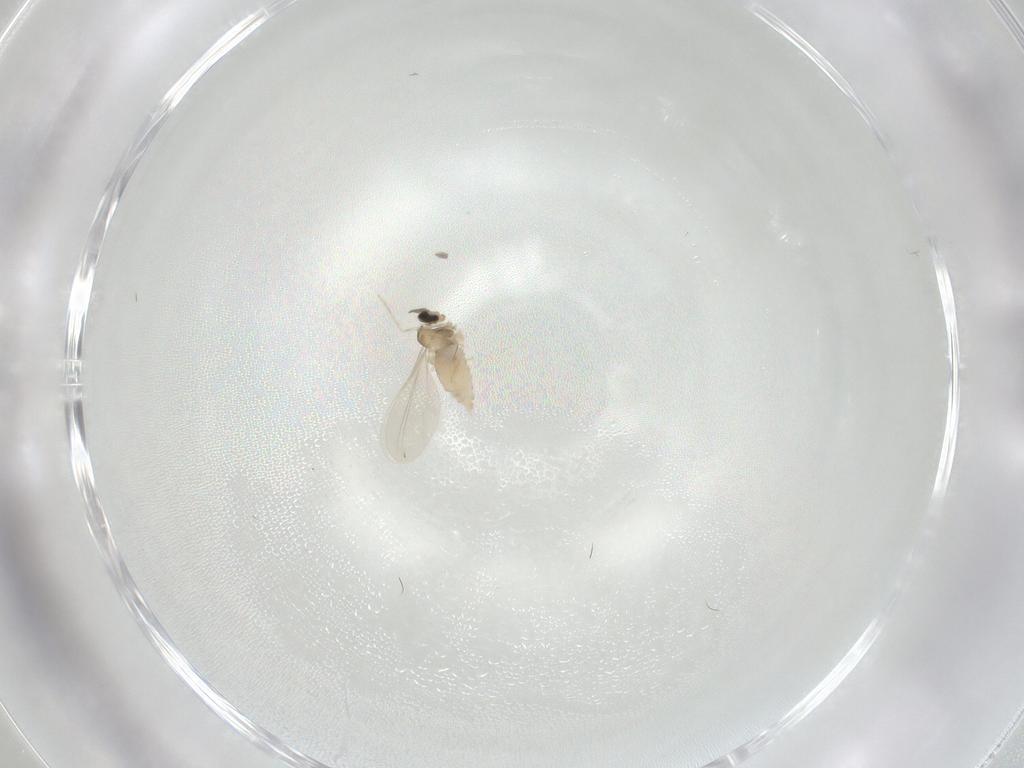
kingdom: Animalia
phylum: Arthropoda
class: Insecta
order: Diptera
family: Cecidomyiidae
